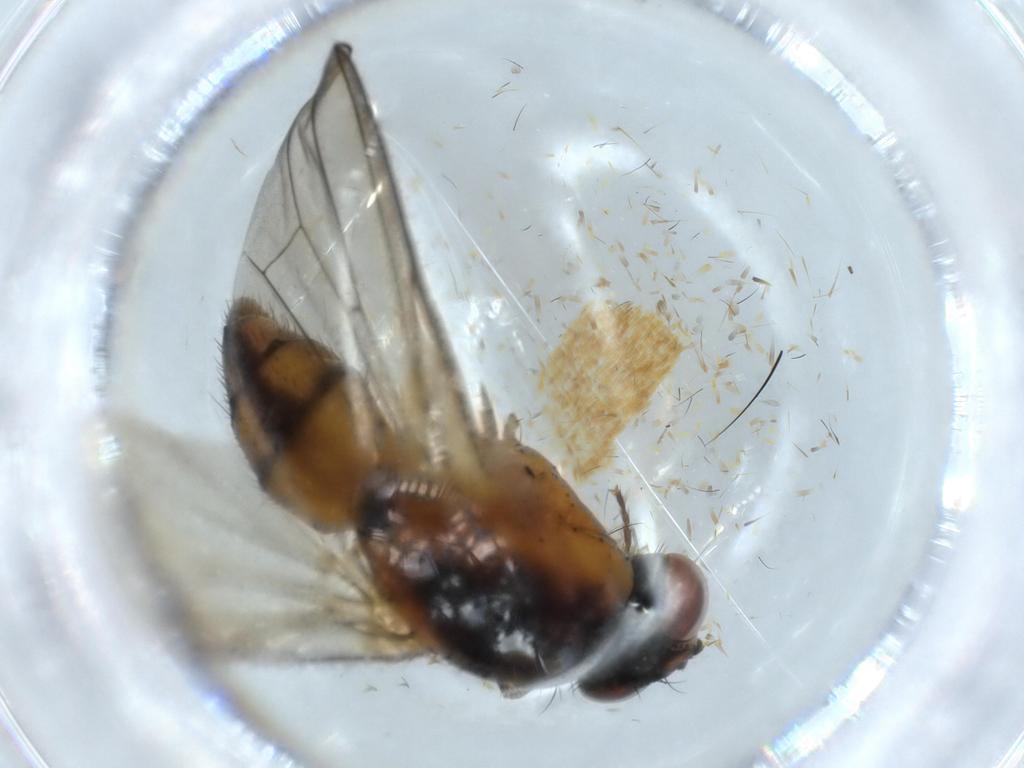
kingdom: Animalia
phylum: Arthropoda
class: Insecta
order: Diptera
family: Anthomyiidae
